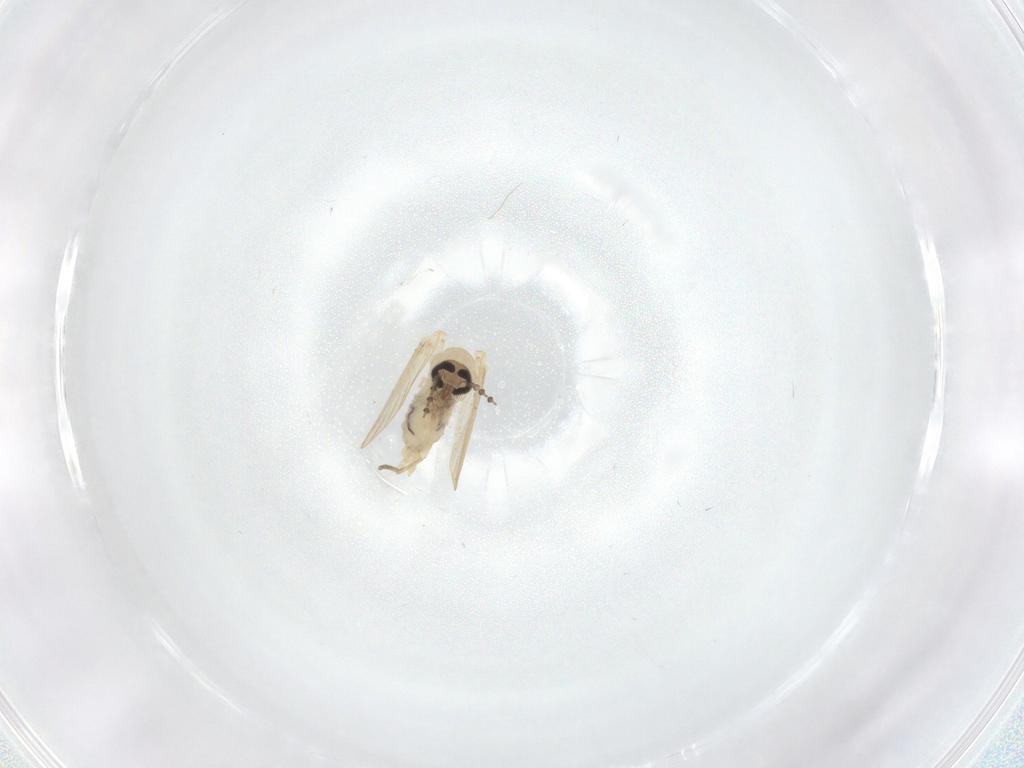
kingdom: Animalia
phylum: Arthropoda
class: Insecta
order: Diptera
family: Psychodidae
